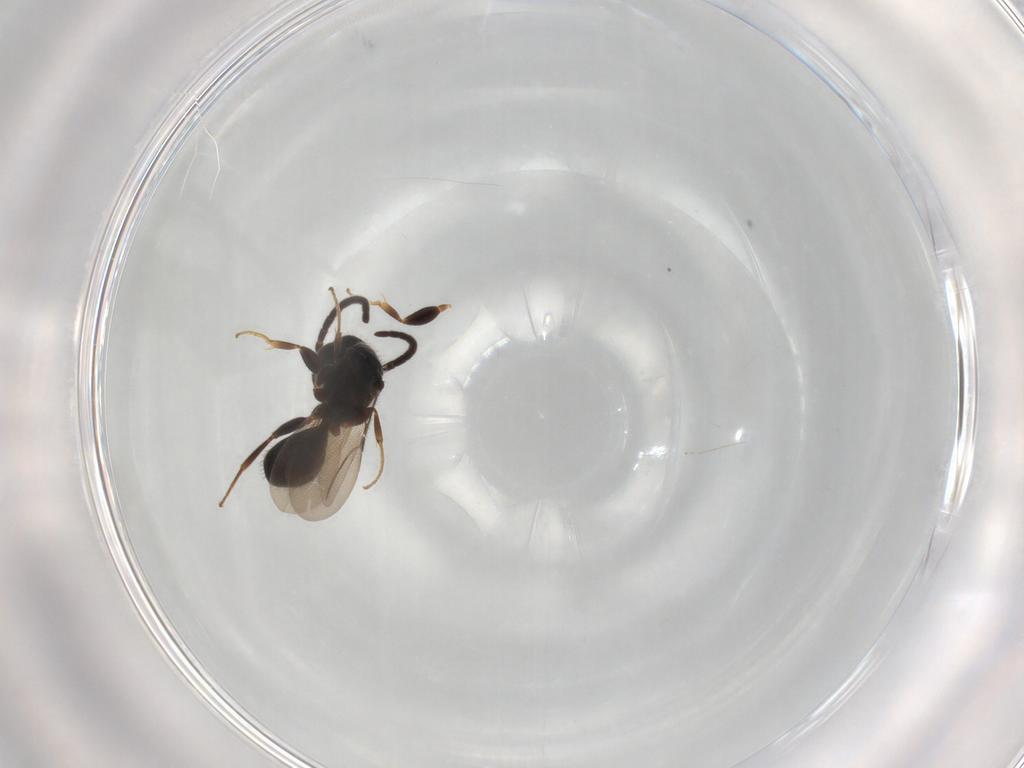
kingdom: Animalia
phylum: Arthropoda
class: Insecta
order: Hymenoptera
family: Bethylidae
